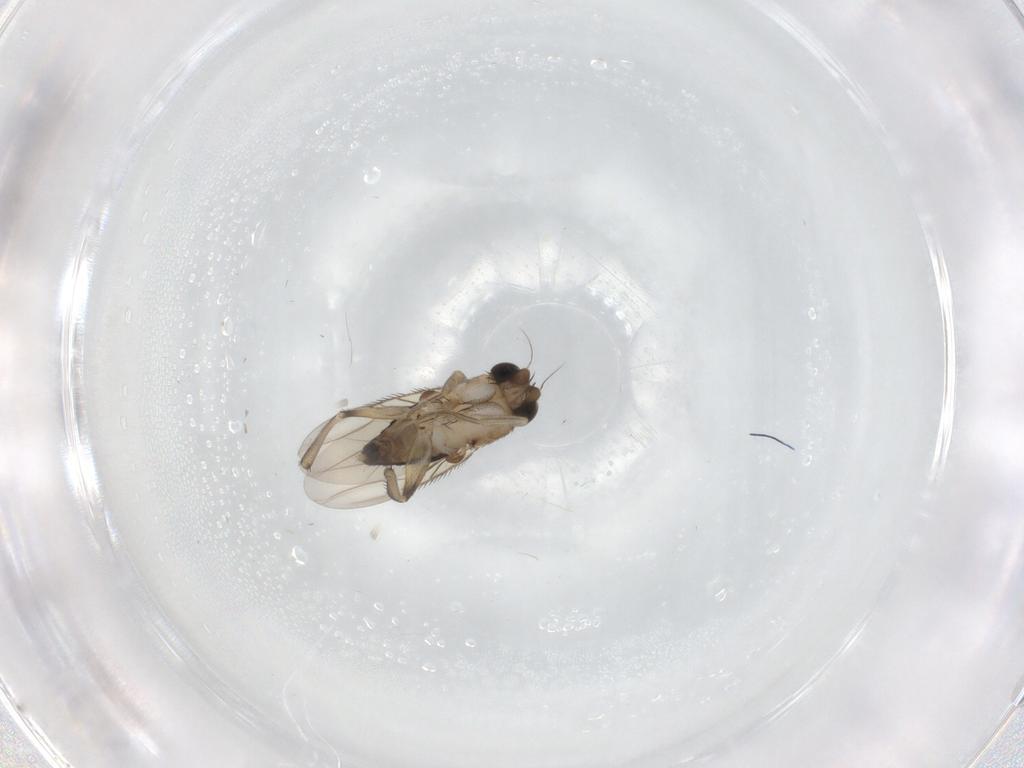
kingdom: Animalia
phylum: Arthropoda
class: Insecta
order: Diptera
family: Phoridae
